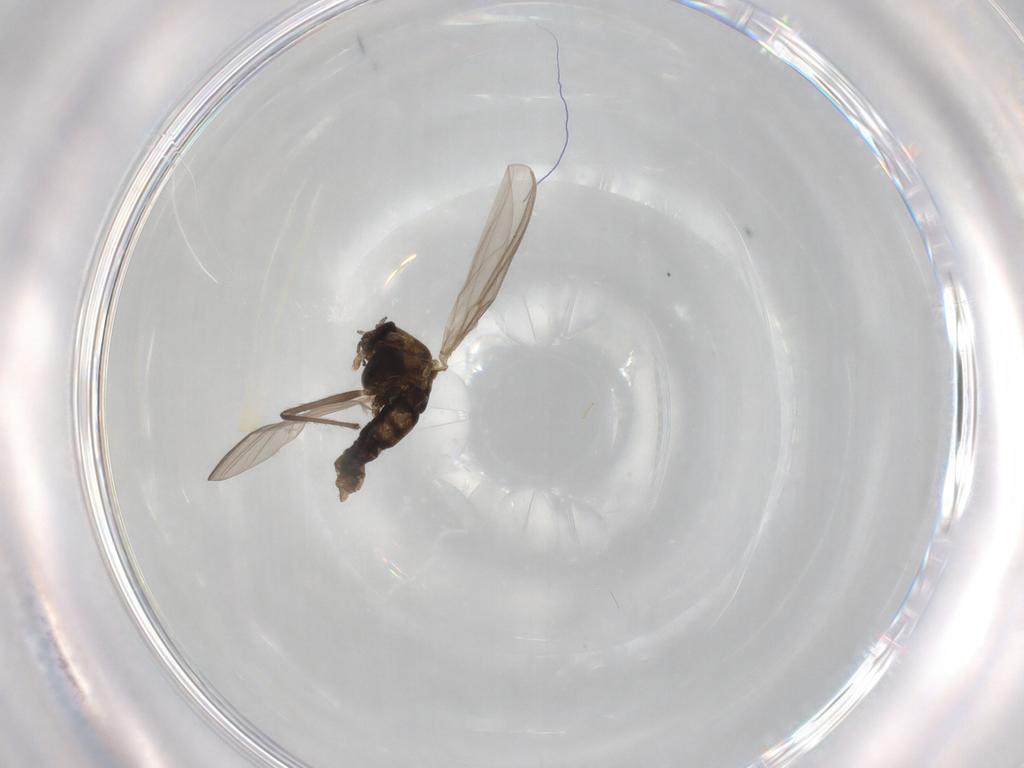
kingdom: Animalia
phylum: Arthropoda
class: Insecta
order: Diptera
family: Chironomidae
